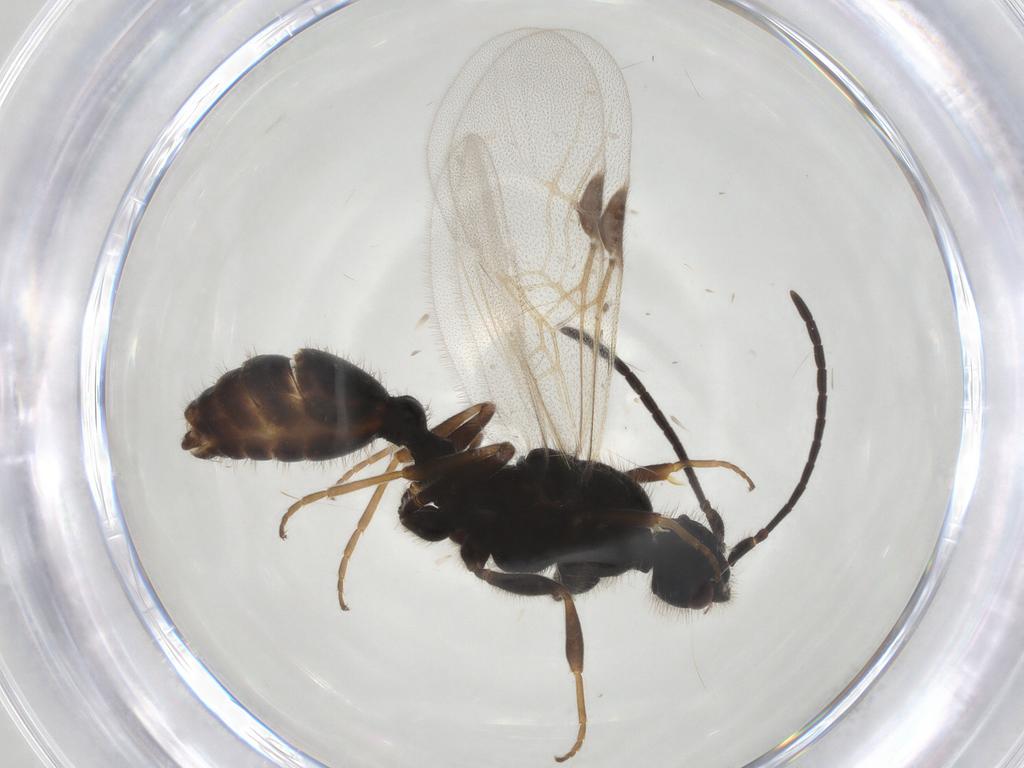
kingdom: Animalia
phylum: Arthropoda
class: Insecta
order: Hymenoptera
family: Formicidae
